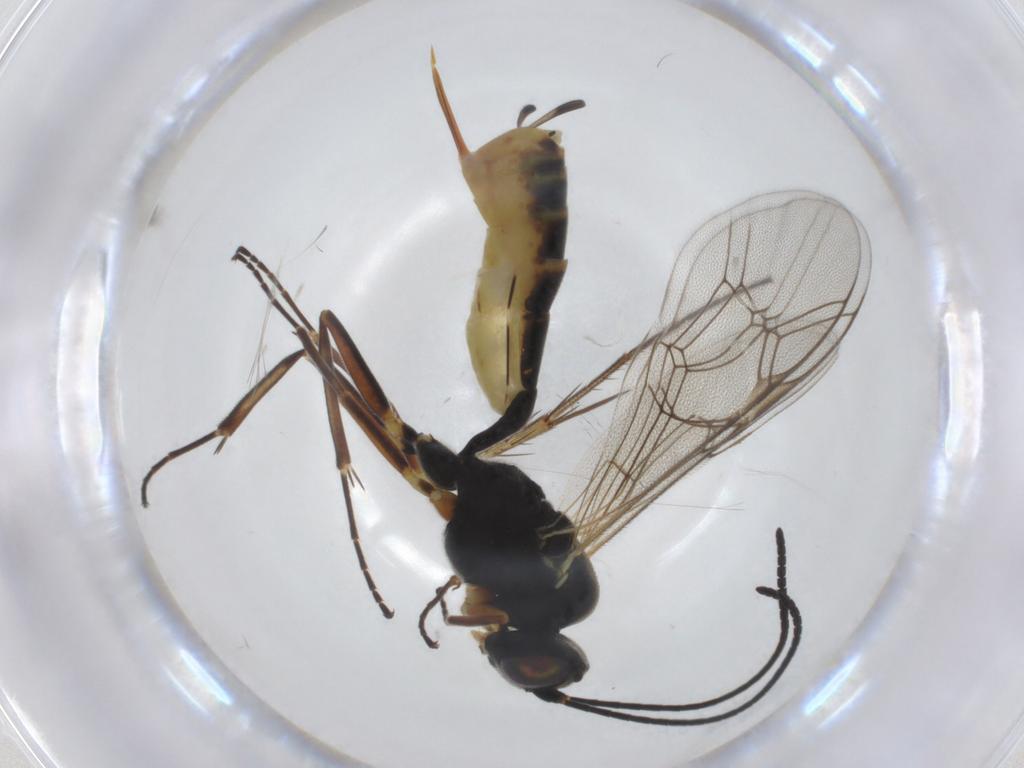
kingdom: Animalia
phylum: Arthropoda
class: Insecta
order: Hymenoptera
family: Ichneumonidae
